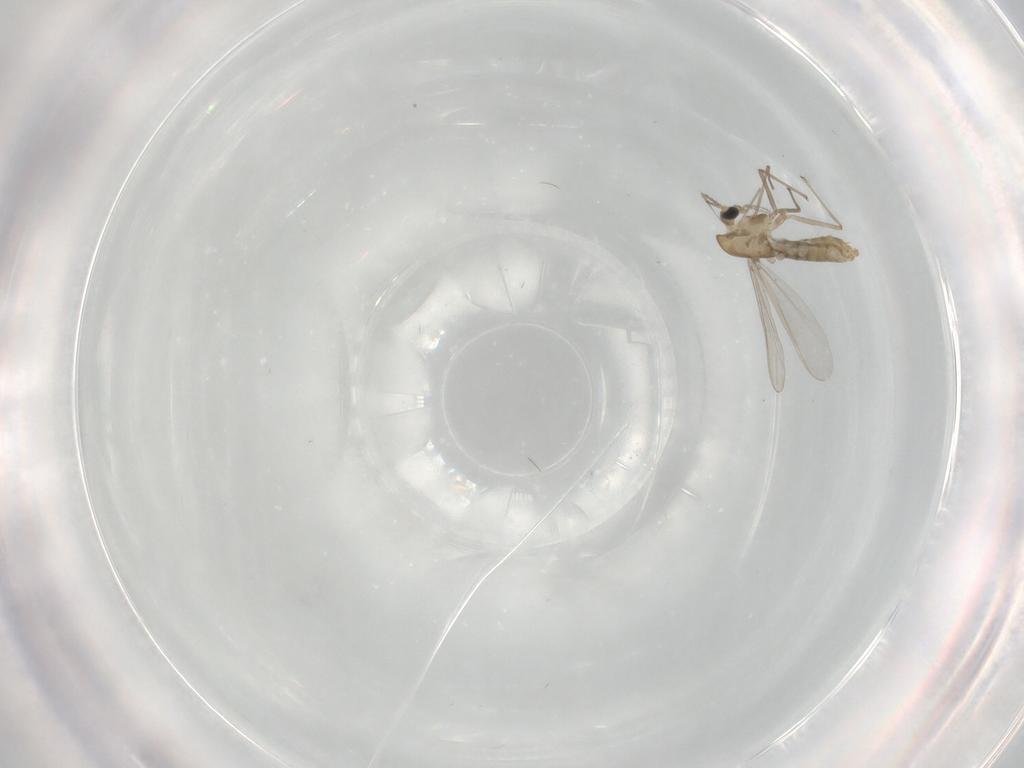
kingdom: Animalia
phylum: Arthropoda
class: Insecta
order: Diptera
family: Chironomidae
